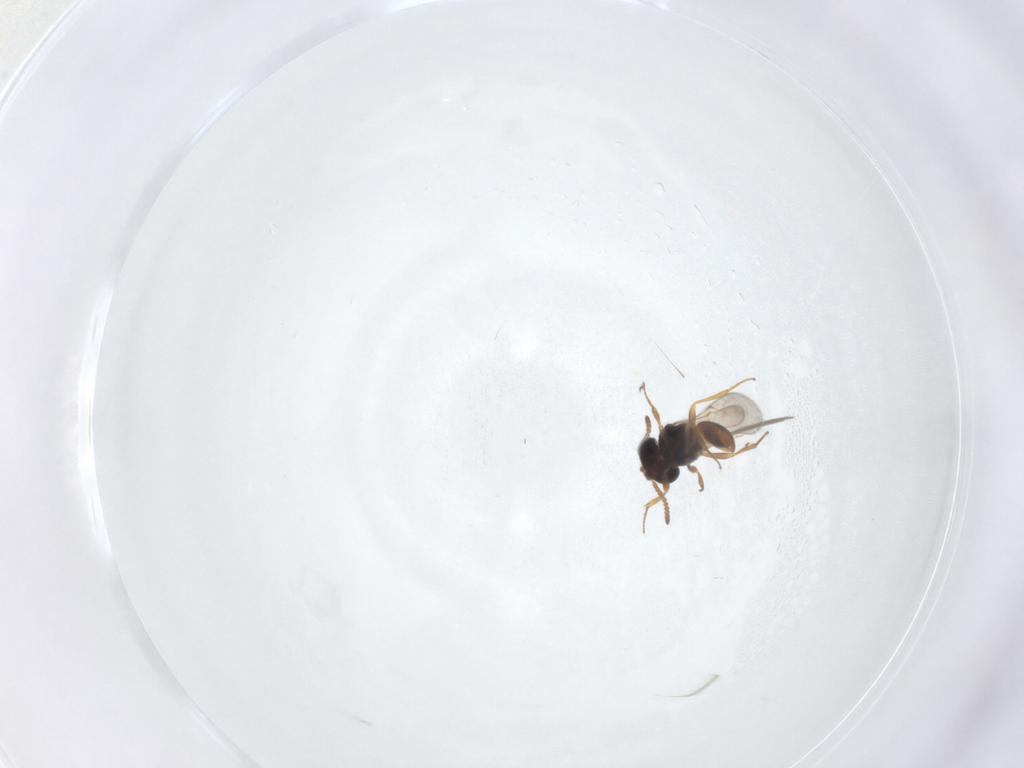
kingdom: Animalia
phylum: Arthropoda
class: Insecta
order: Hymenoptera
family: Scelionidae
